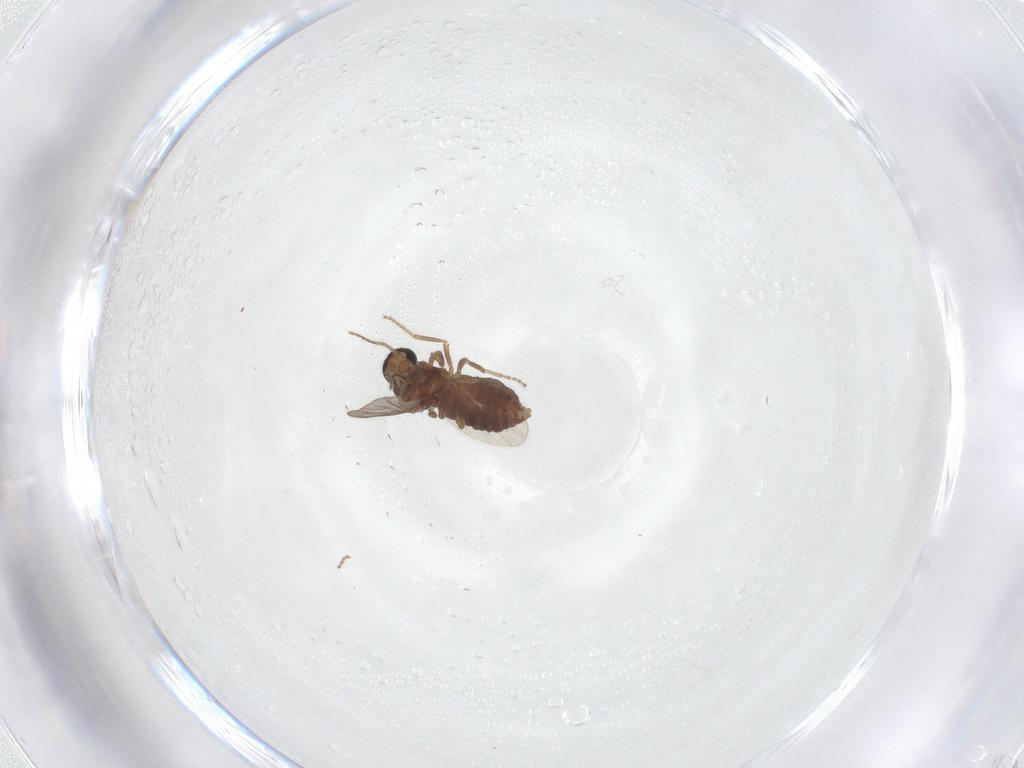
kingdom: Animalia
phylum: Arthropoda
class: Insecta
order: Diptera
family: Ceratopogonidae
